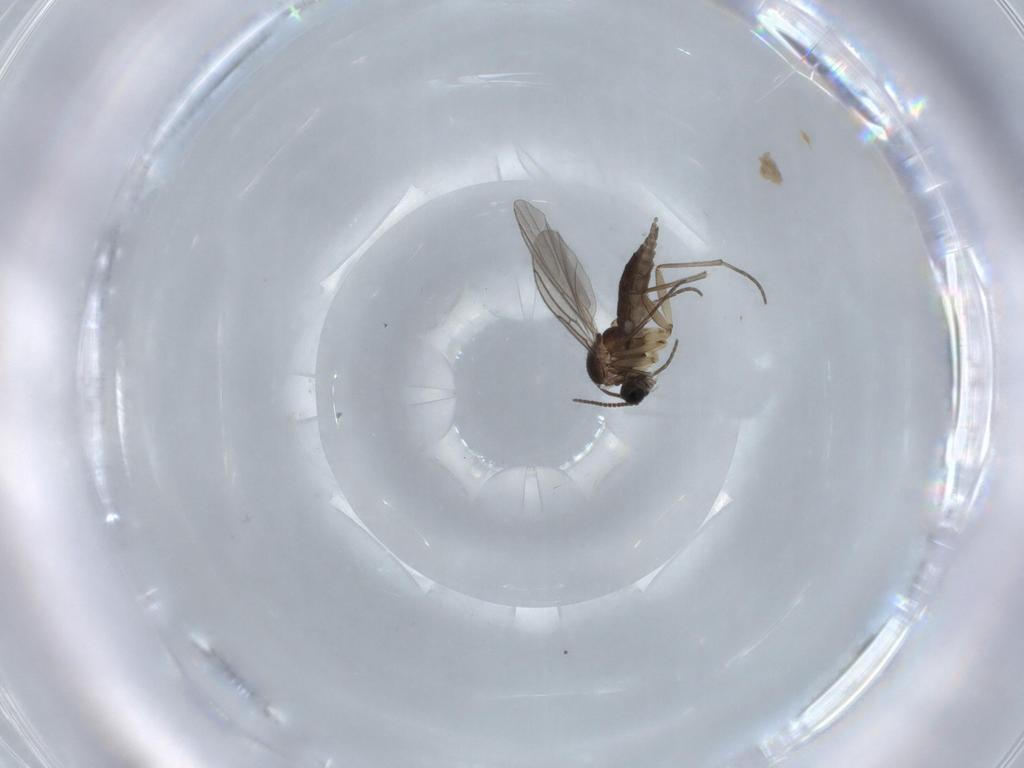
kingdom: Animalia
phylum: Arthropoda
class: Insecta
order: Diptera
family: Sciaridae
